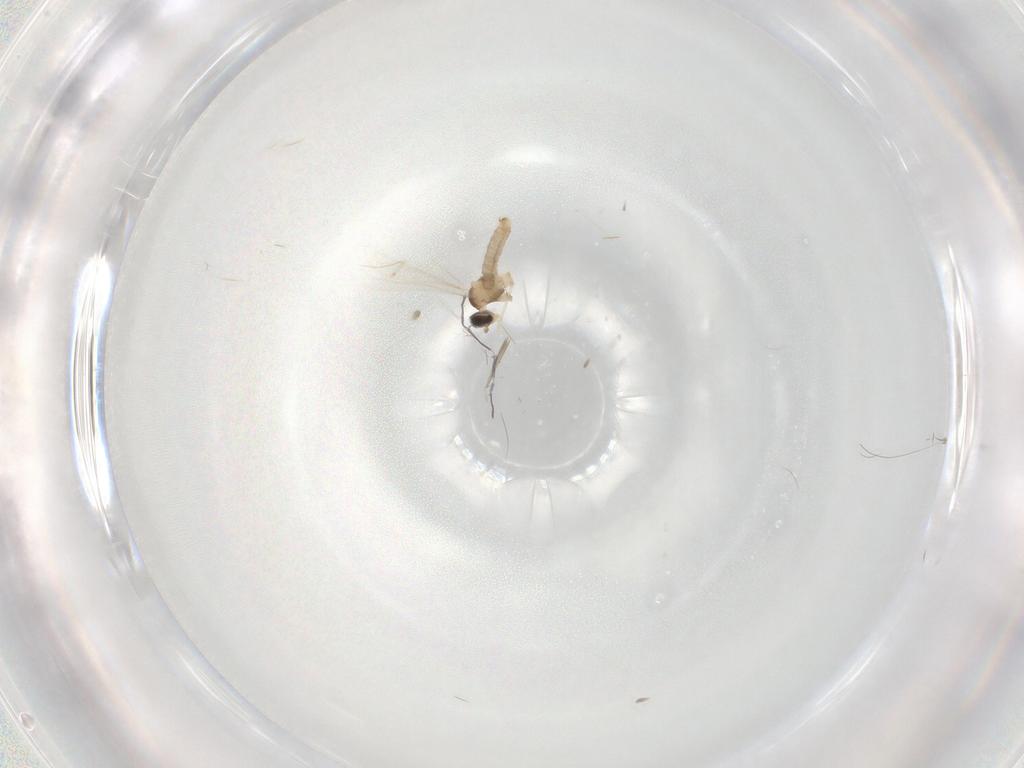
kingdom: Animalia
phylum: Arthropoda
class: Insecta
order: Diptera
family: Cecidomyiidae
